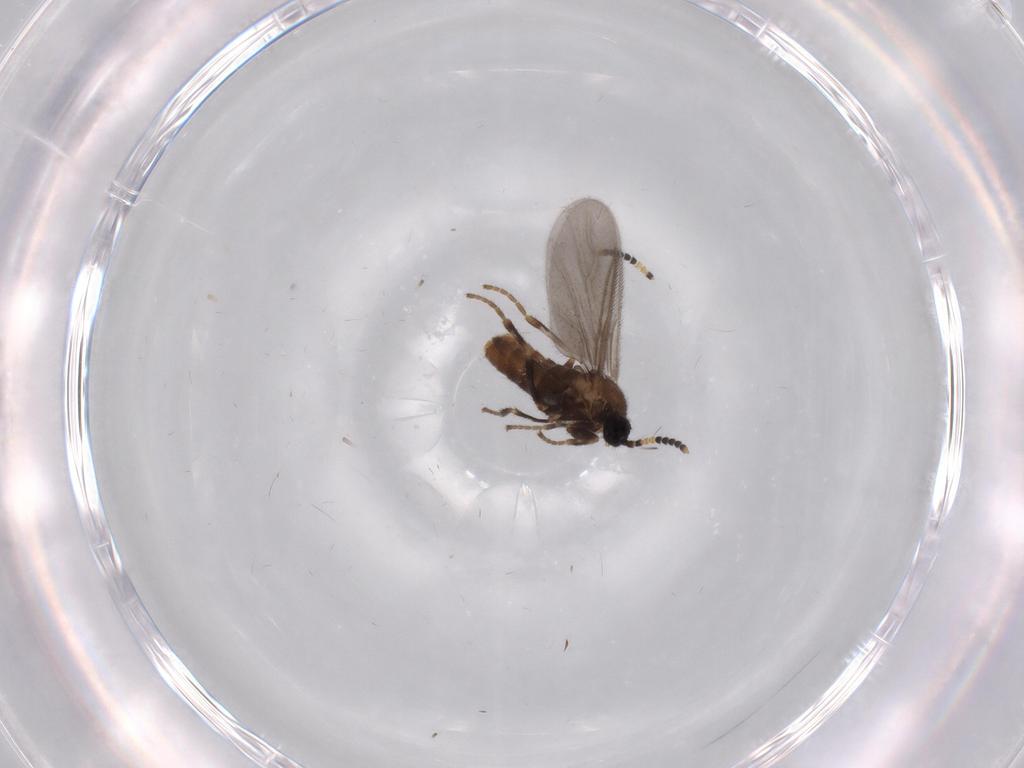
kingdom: Animalia
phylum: Arthropoda
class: Insecta
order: Diptera
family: Scatopsidae
